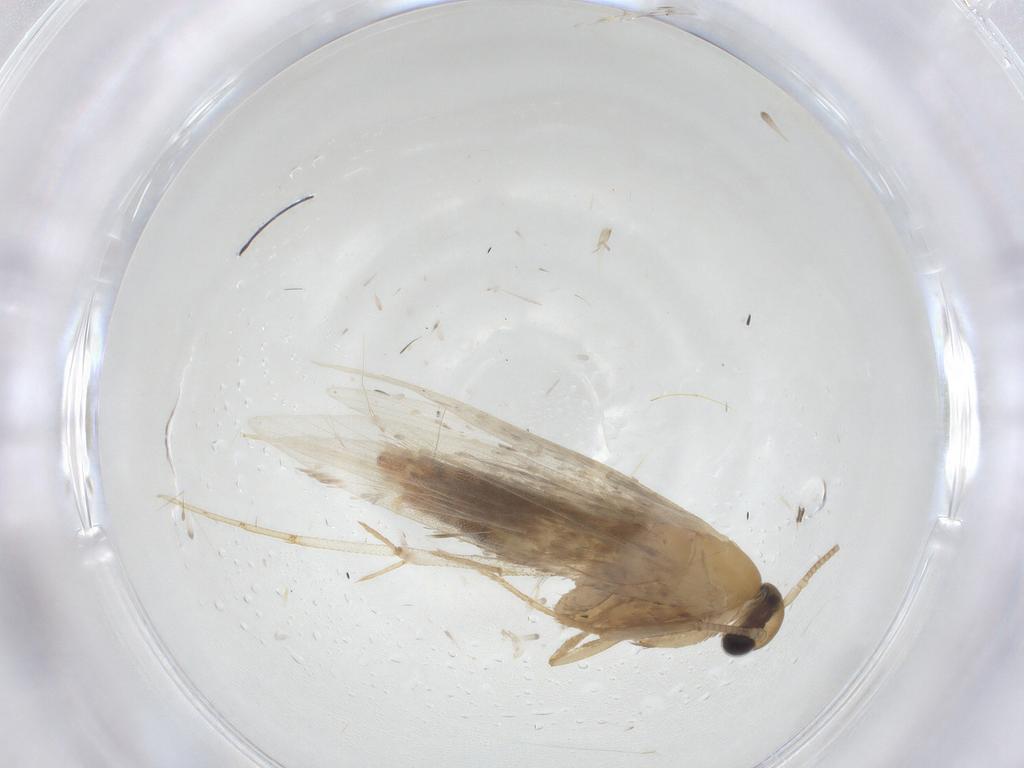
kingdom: Animalia
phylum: Arthropoda
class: Insecta
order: Lepidoptera
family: Tineidae
